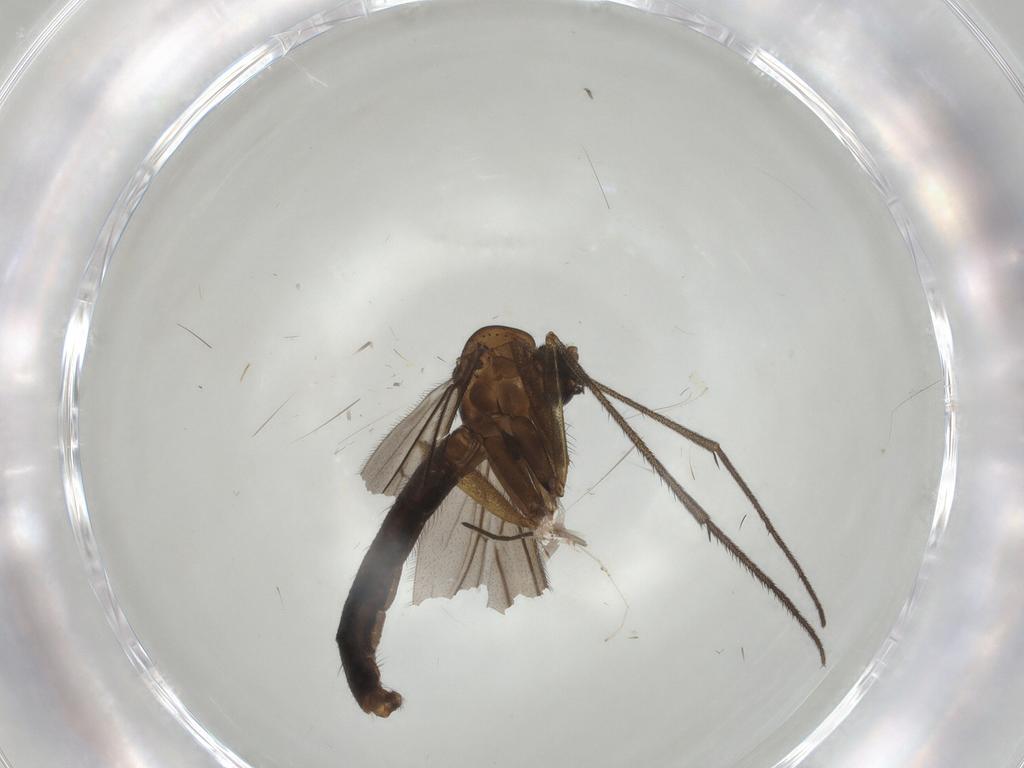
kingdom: Animalia
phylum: Arthropoda
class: Insecta
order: Diptera
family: Ditomyiidae
